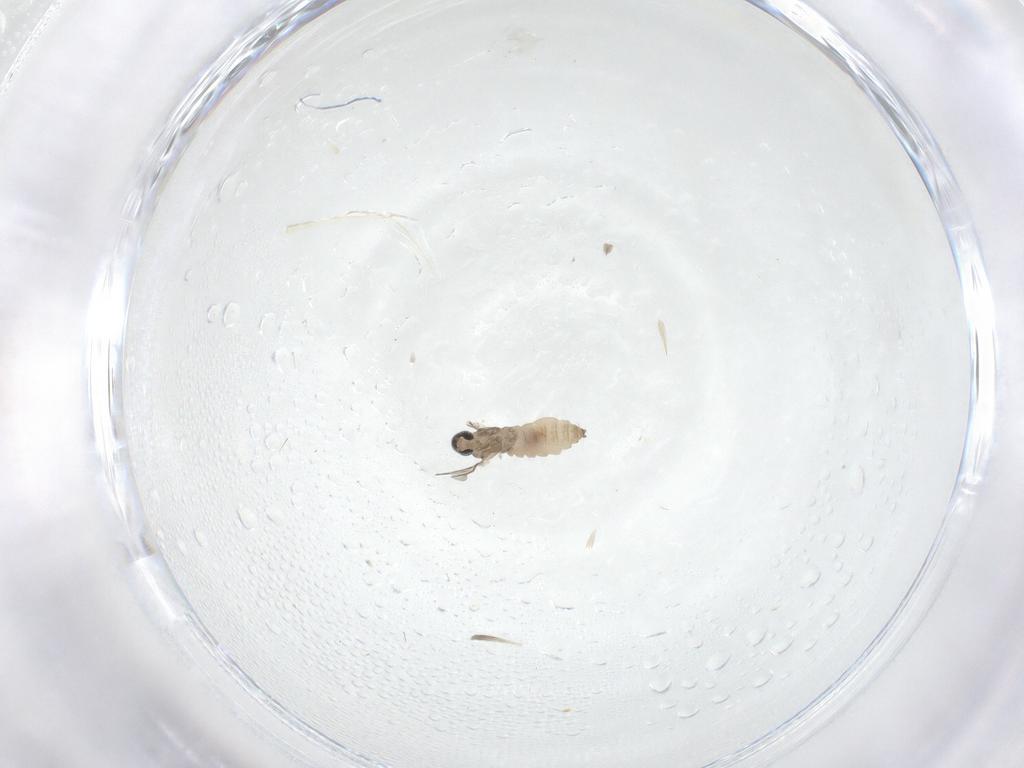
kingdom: Animalia
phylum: Arthropoda
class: Insecta
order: Diptera
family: Cecidomyiidae
